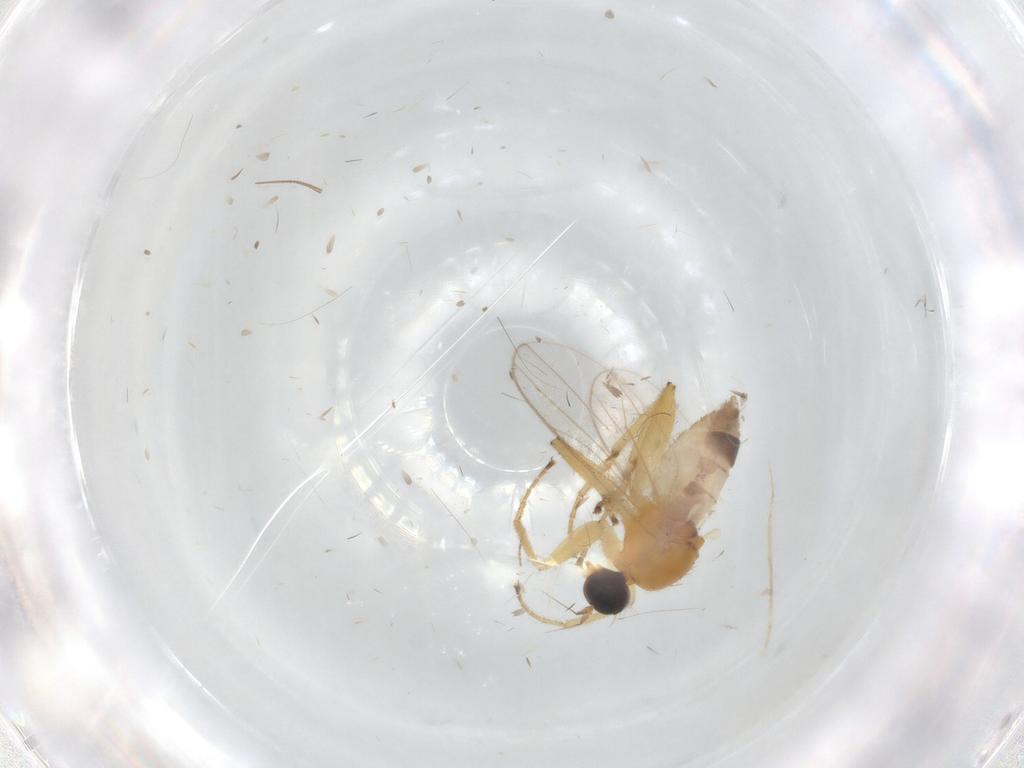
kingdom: Animalia
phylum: Arthropoda
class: Insecta
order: Diptera
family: Hybotidae
